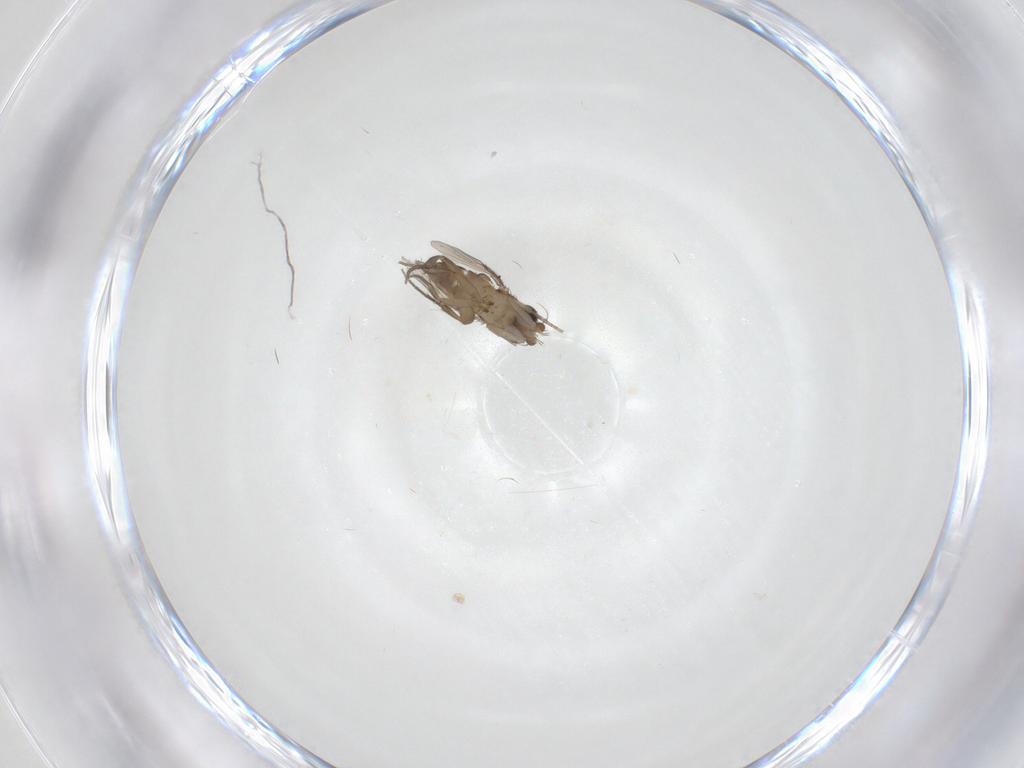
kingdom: Animalia
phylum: Arthropoda
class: Insecta
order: Diptera
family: Phoridae
